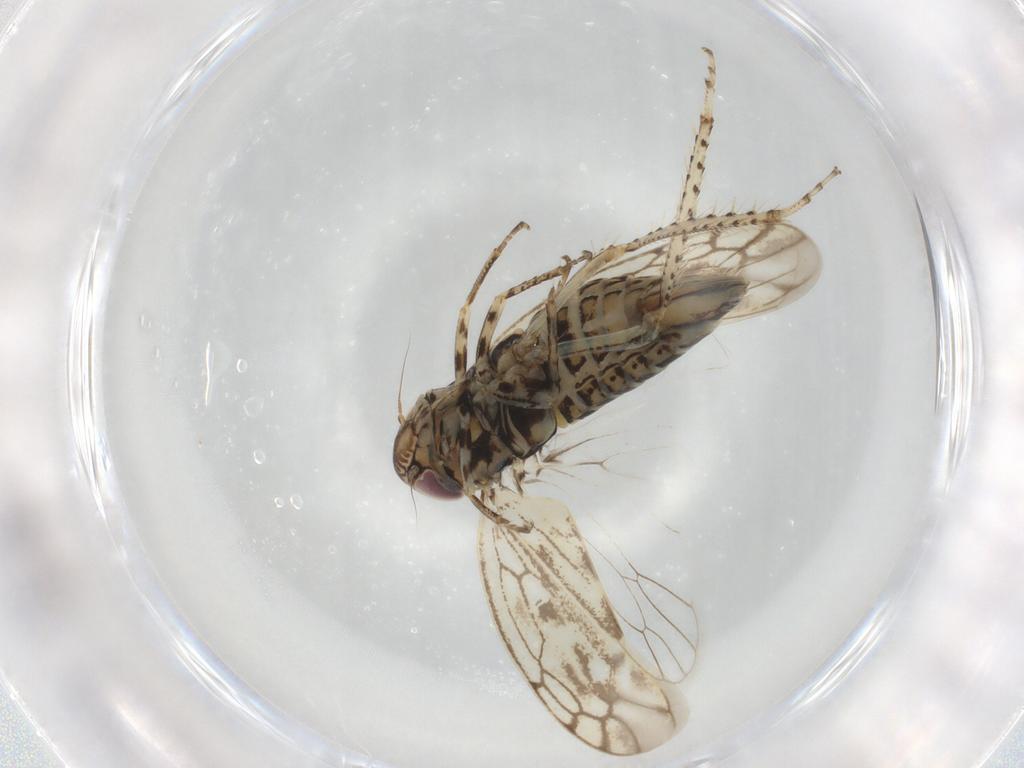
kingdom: Animalia
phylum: Arthropoda
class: Insecta
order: Hemiptera
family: Cicadellidae
